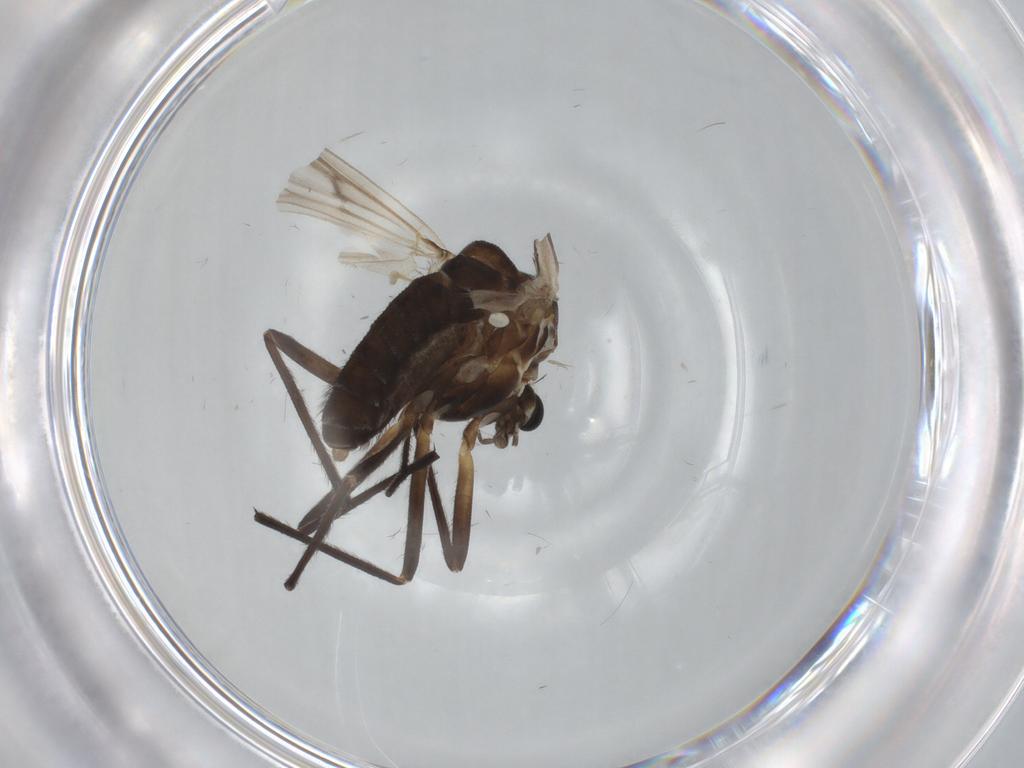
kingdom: Animalia
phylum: Arthropoda
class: Insecta
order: Diptera
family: Chironomidae
